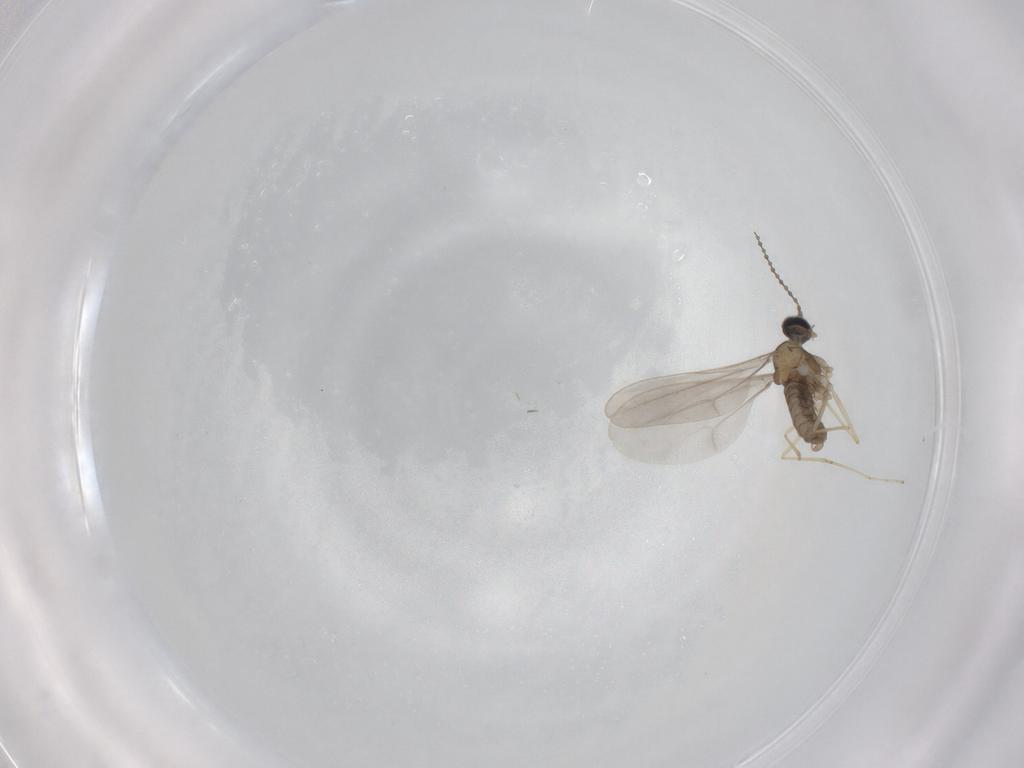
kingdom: Animalia
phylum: Arthropoda
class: Insecta
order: Diptera
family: Cecidomyiidae
